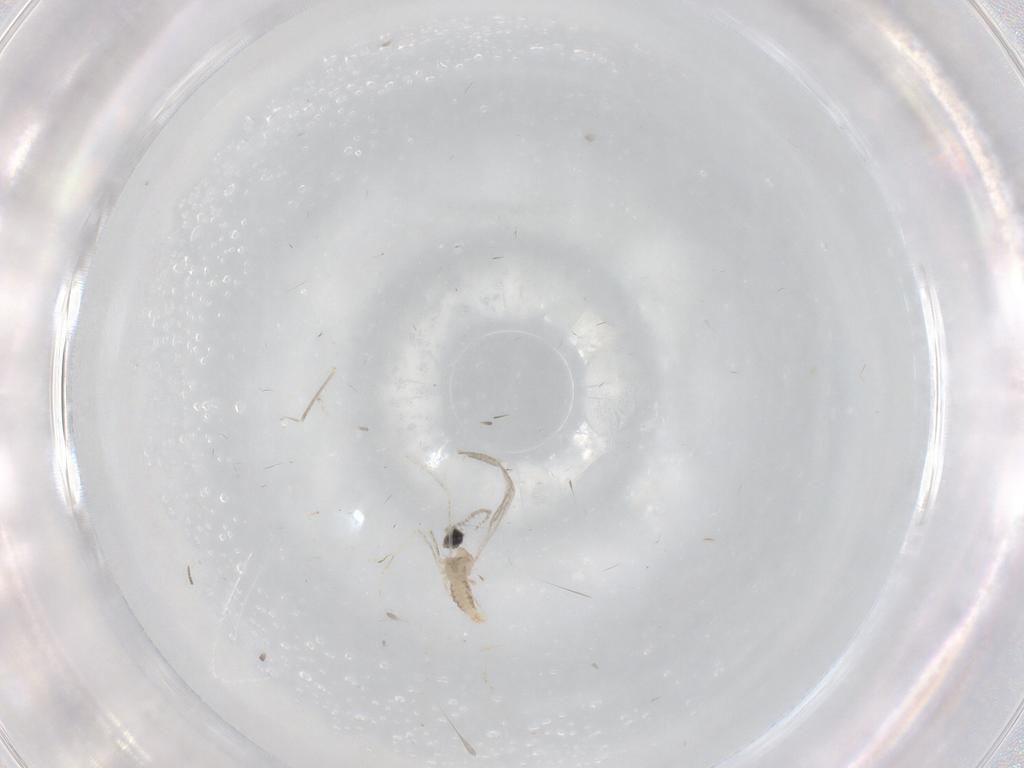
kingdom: Animalia
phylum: Arthropoda
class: Insecta
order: Diptera
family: Cecidomyiidae
